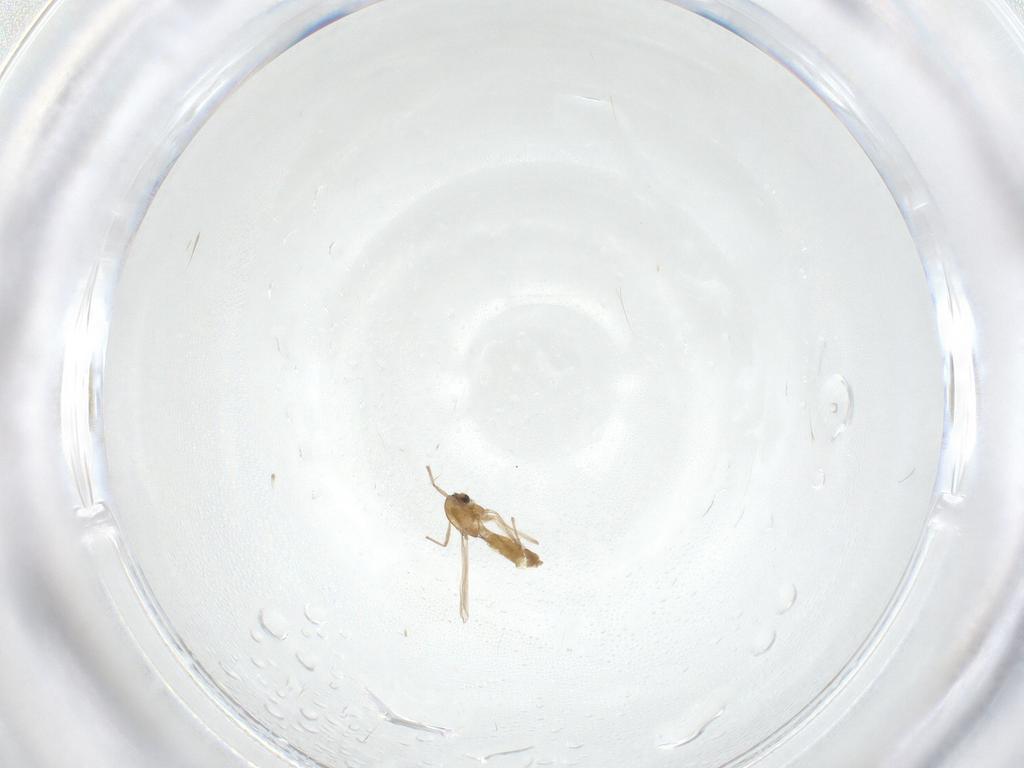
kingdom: Animalia
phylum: Arthropoda
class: Insecta
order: Diptera
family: Chironomidae
